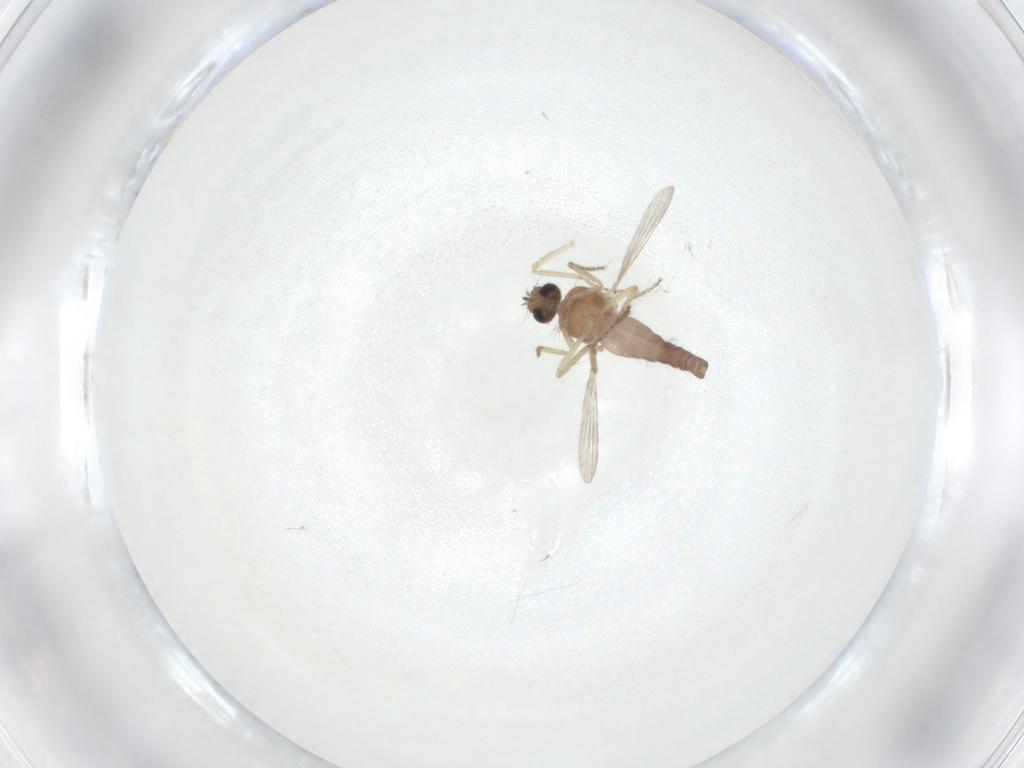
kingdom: Animalia
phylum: Arthropoda
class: Insecta
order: Diptera
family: Ceratopogonidae
